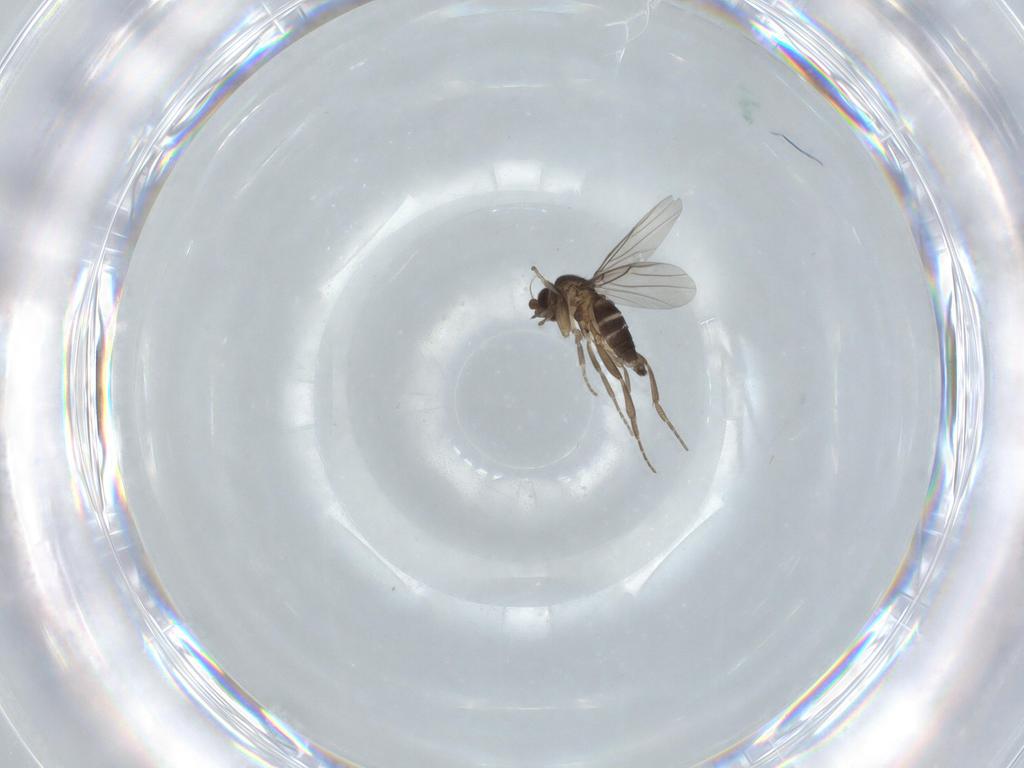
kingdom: Animalia
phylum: Arthropoda
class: Insecta
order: Diptera
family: Phoridae
